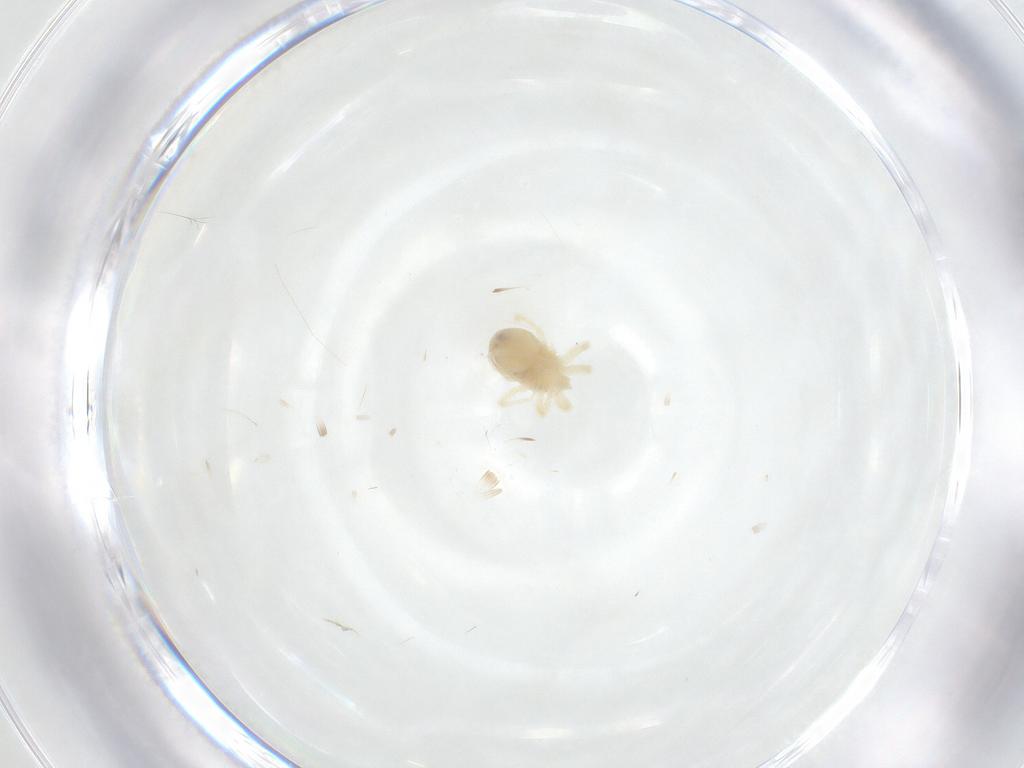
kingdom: Animalia
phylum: Arthropoda
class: Arachnida
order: Trombidiformes
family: Anystidae
